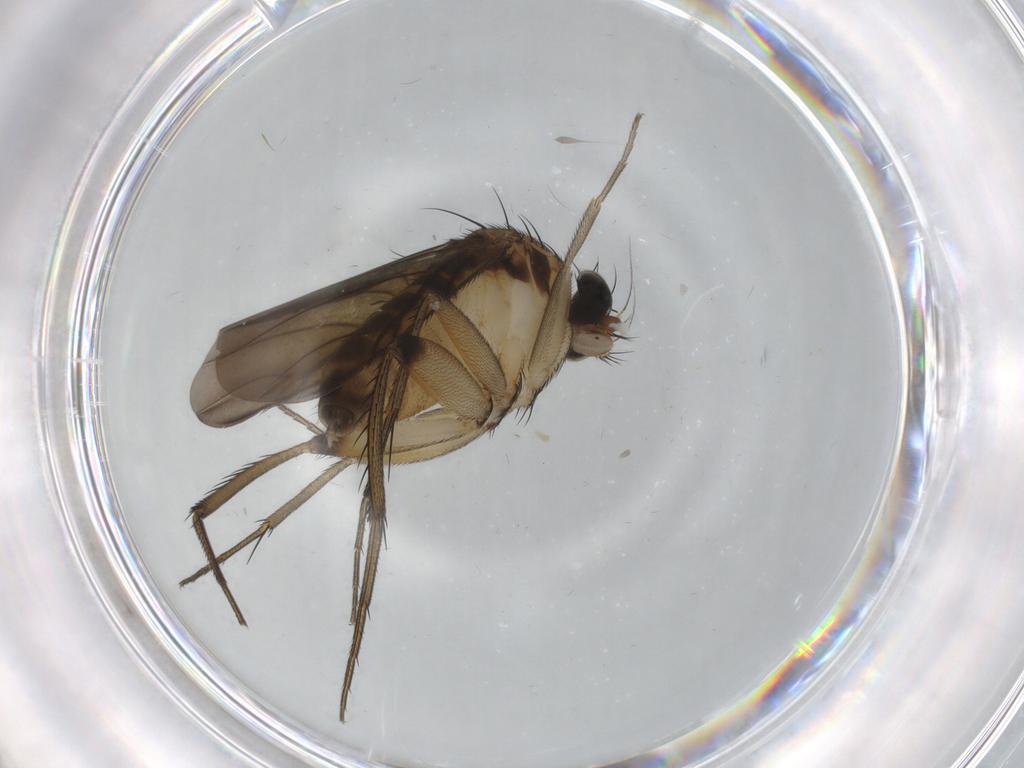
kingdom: Animalia
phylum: Arthropoda
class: Insecta
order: Diptera
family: Phoridae
